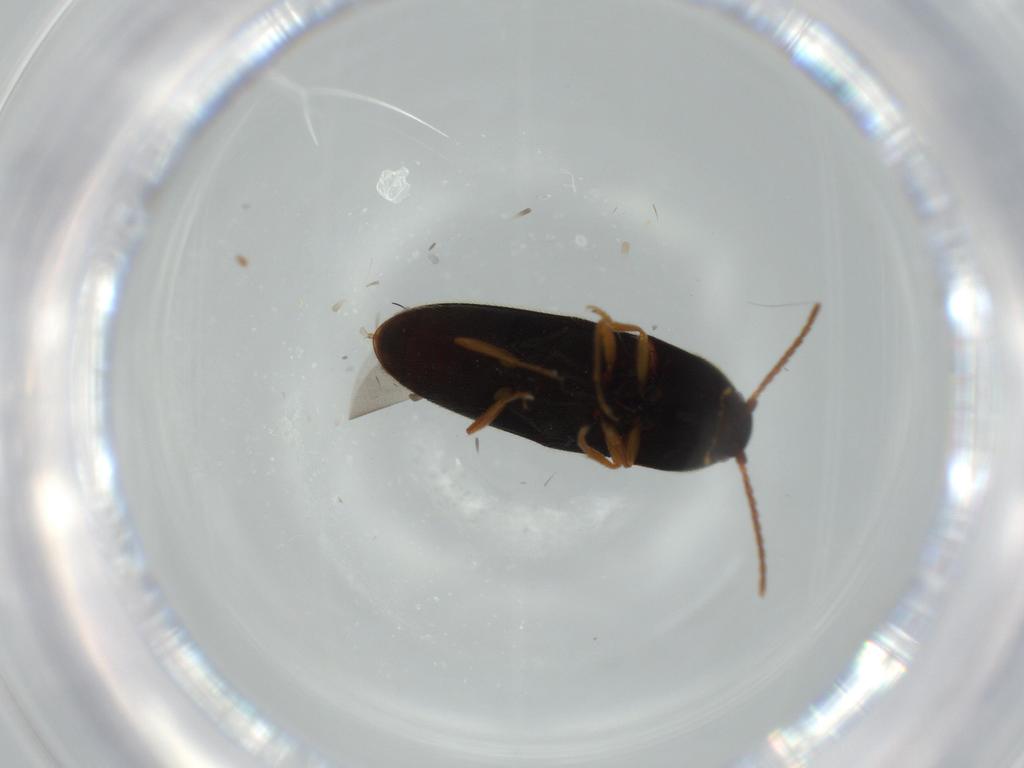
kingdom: Animalia
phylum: Arthropoda
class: Insecta
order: Coleoptera
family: Elateridae
